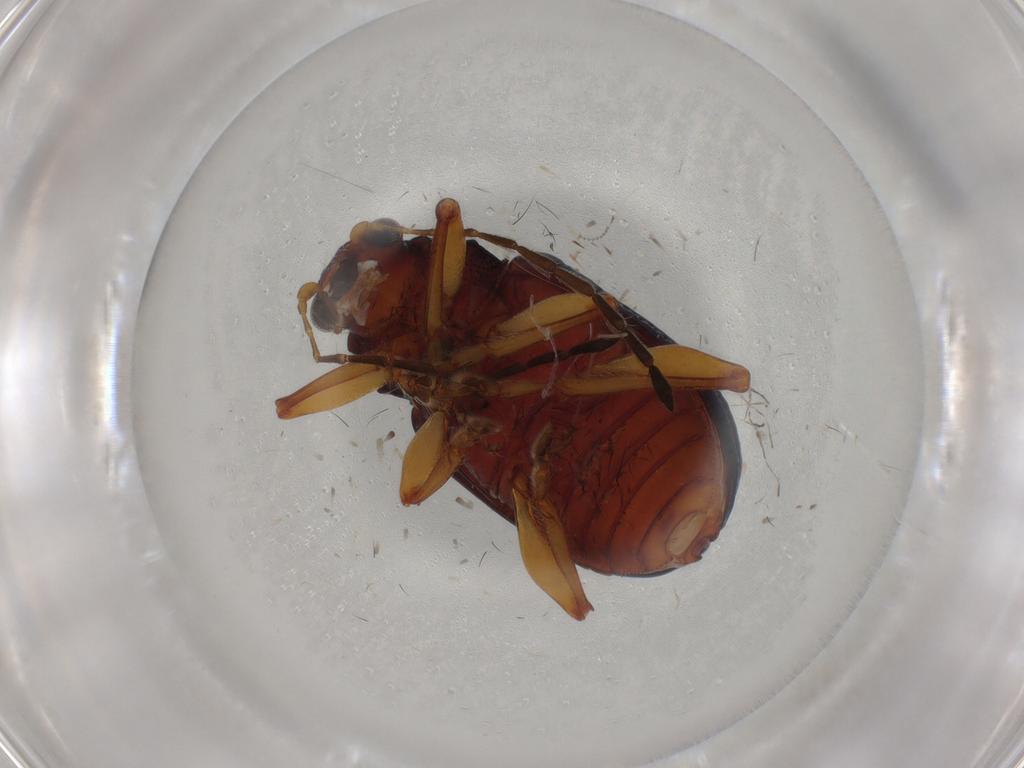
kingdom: Animalia
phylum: Arthropoda
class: Insecta
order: Coleoptera
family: Chrysomelidae
